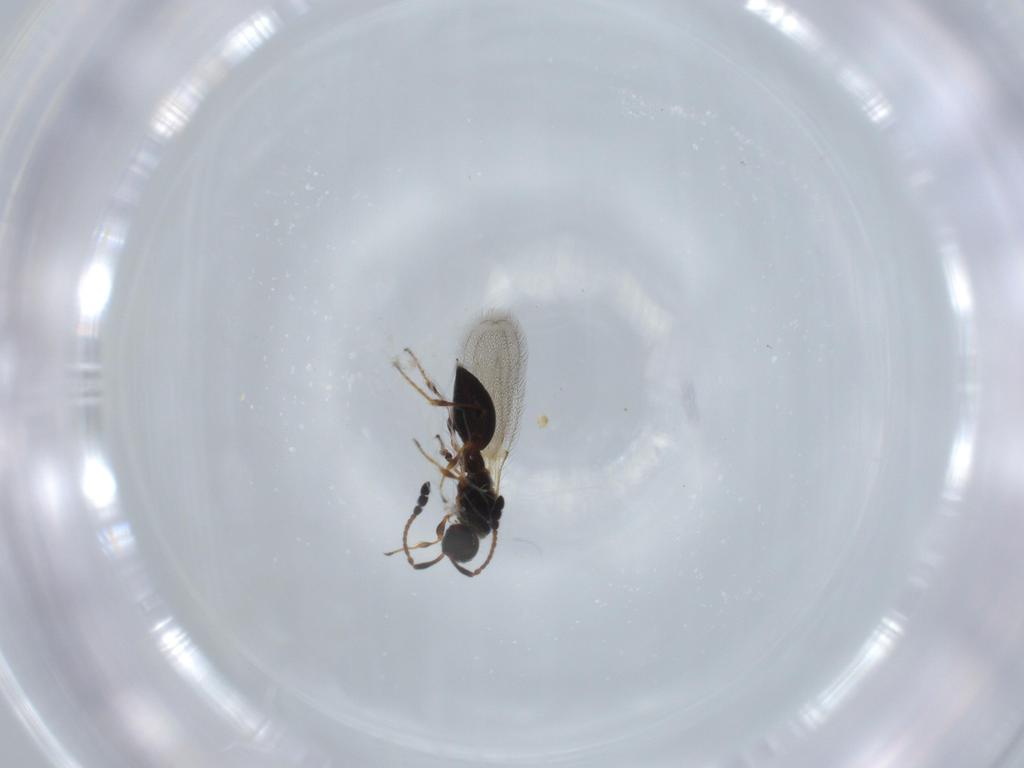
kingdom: Animalia
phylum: Arthropoda
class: Insecta
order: Hymenoptera
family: Diapriidae
